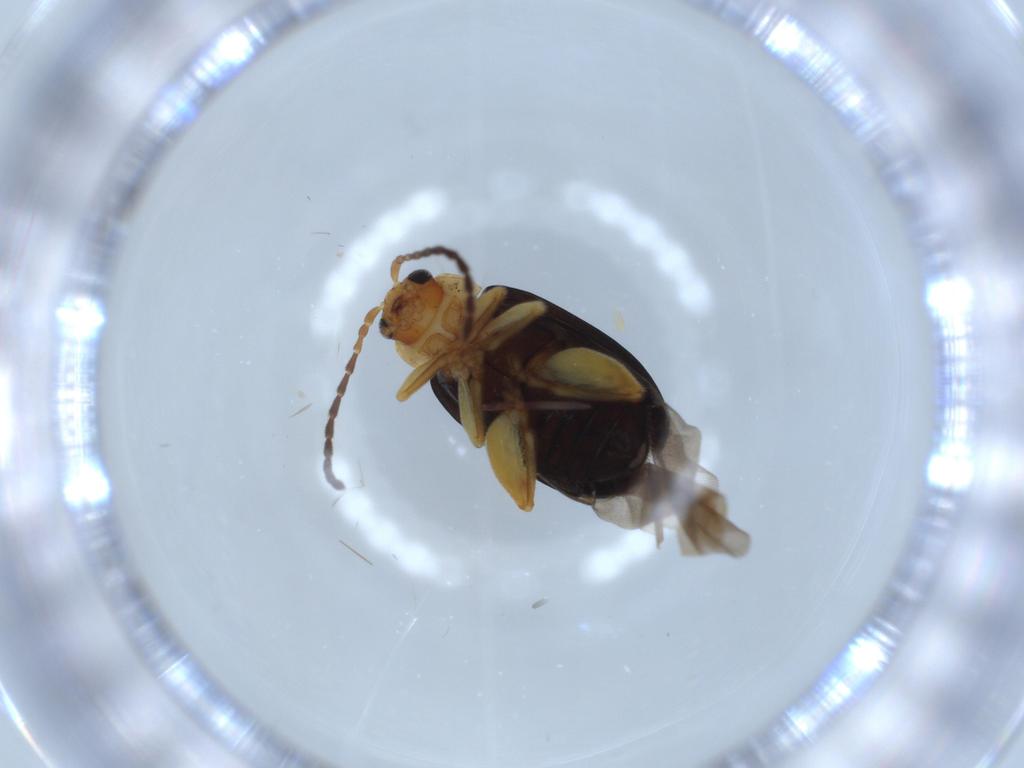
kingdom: Animalia
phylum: Arthropoda
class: Insecta
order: Coleoptera
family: Chrysomelidae
